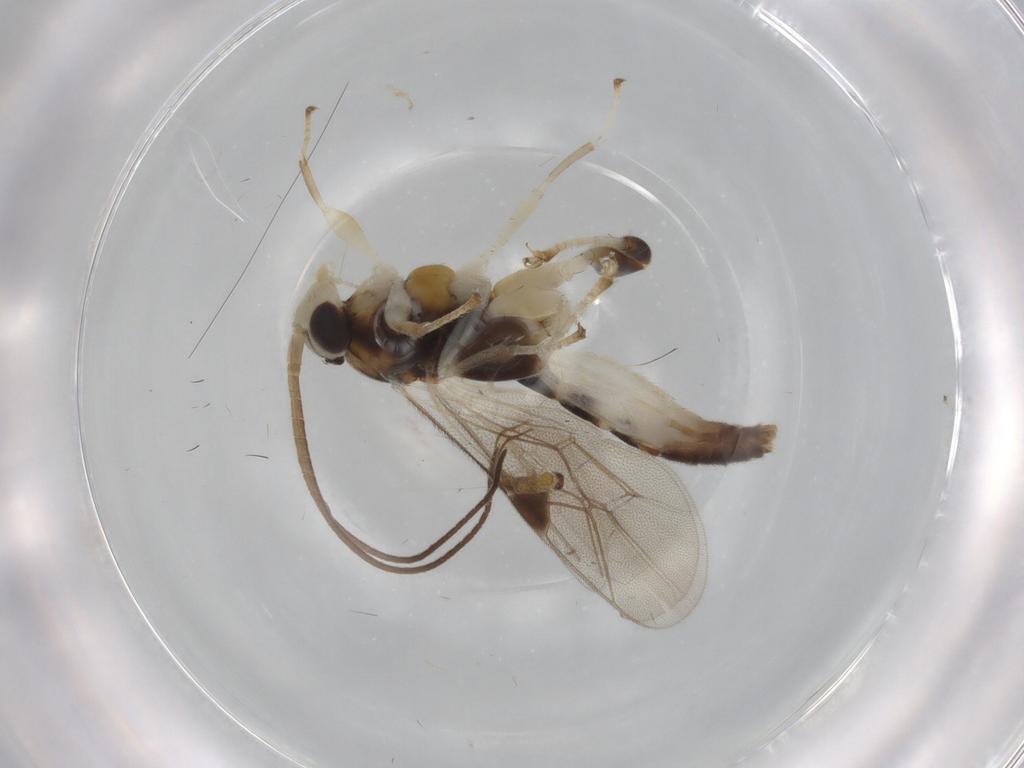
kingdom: Animalia
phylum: Arthropoda
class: Insecta
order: Hymenoptera
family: Ichneumonidae
